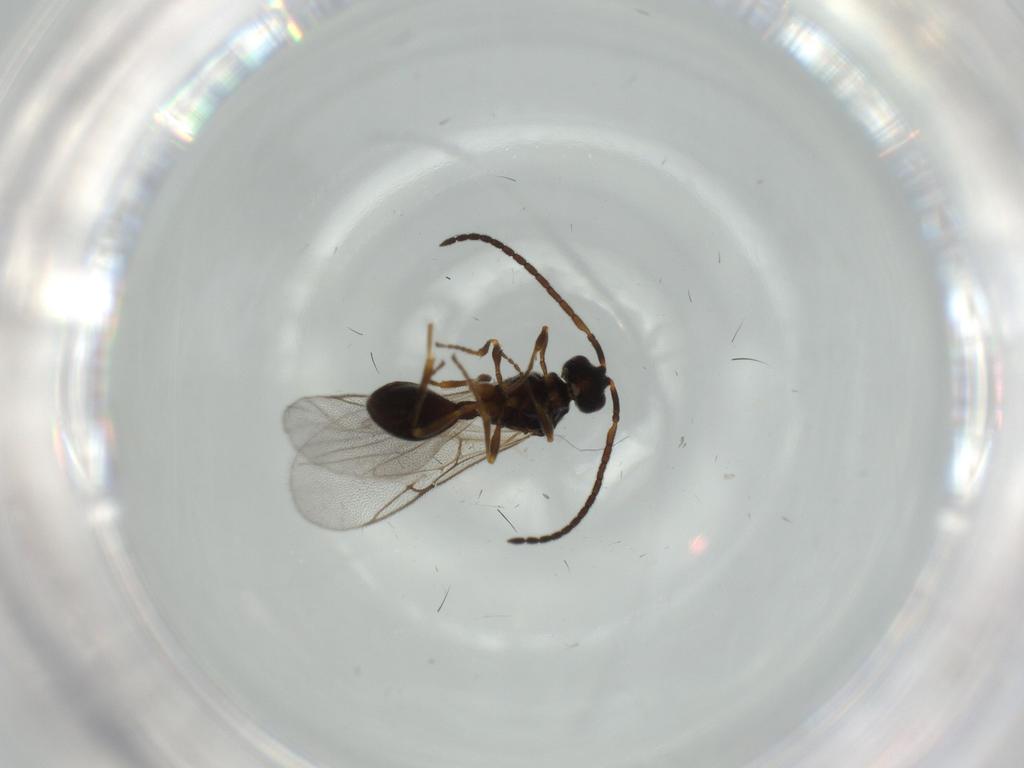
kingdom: Animalia
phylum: Arthropoda
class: Insecta
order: Hymenoptera
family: Diapriidae
